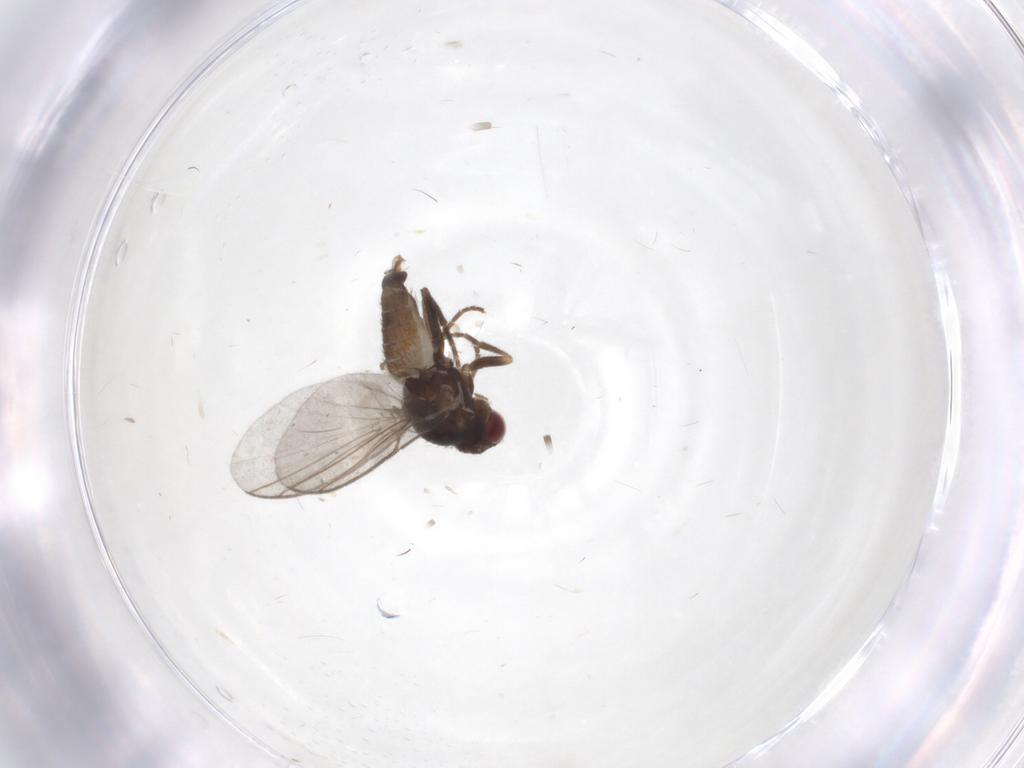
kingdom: Animalia
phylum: Arthropoda
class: Insecta
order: Diptera
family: Agromyzidae
